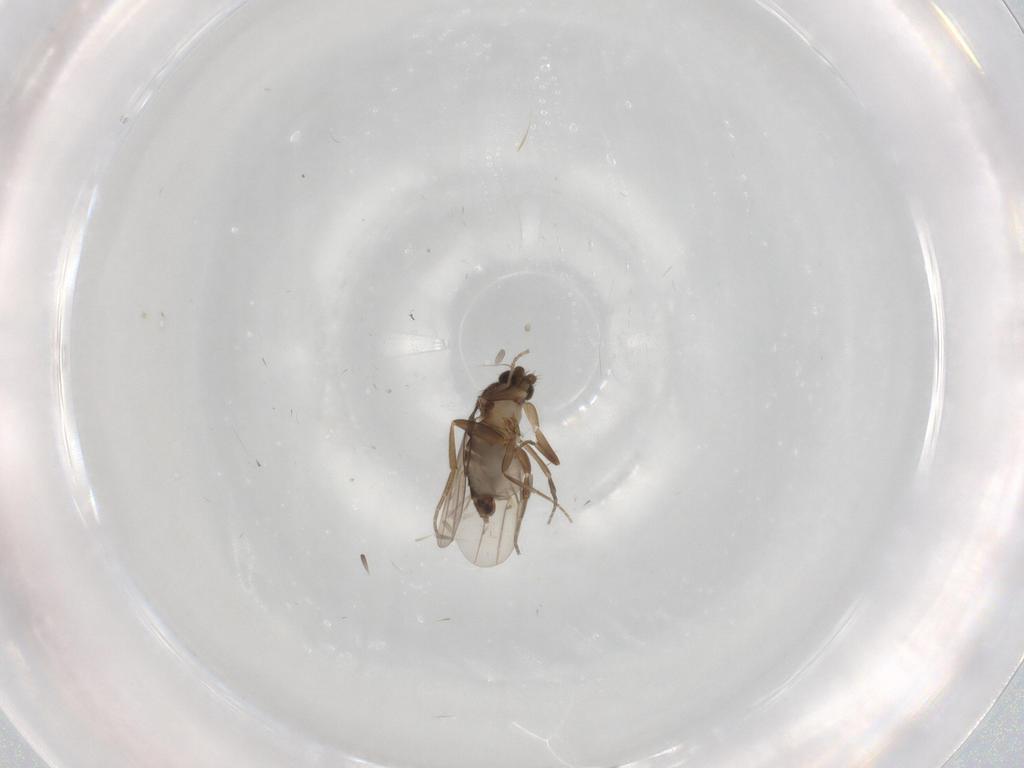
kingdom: Animalia
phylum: Arthropoda
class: Insecta
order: Diptera
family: Phoridae
